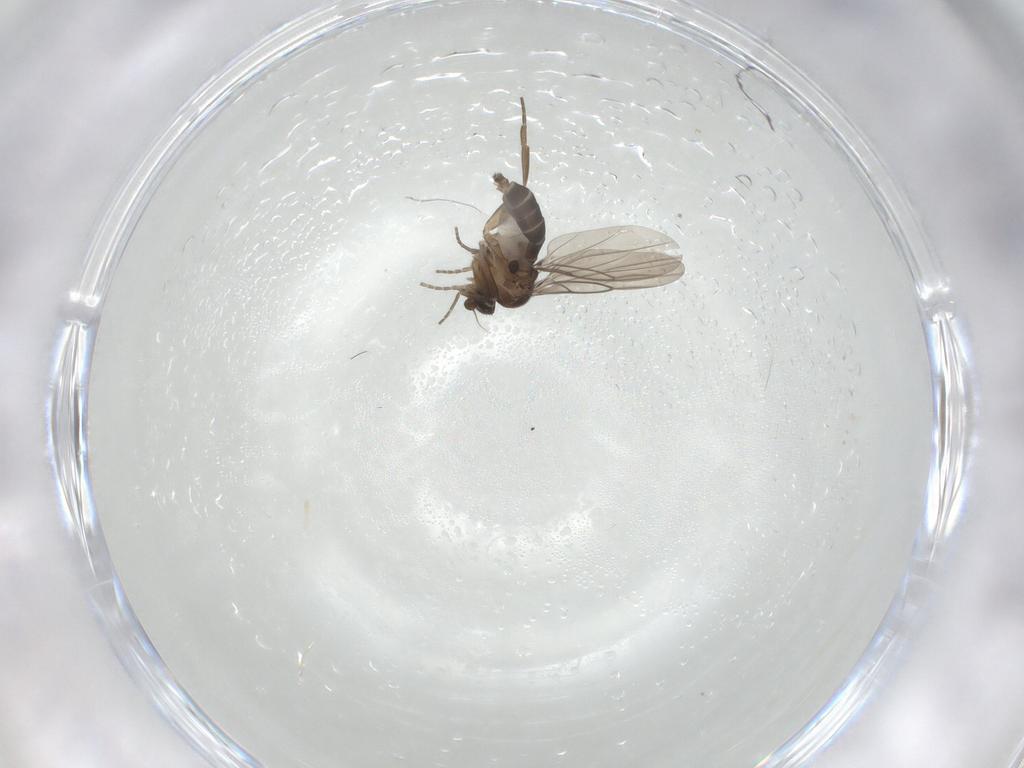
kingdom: Animalia
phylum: Arthropoda
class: Insecta
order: Diptera
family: Phoridae
